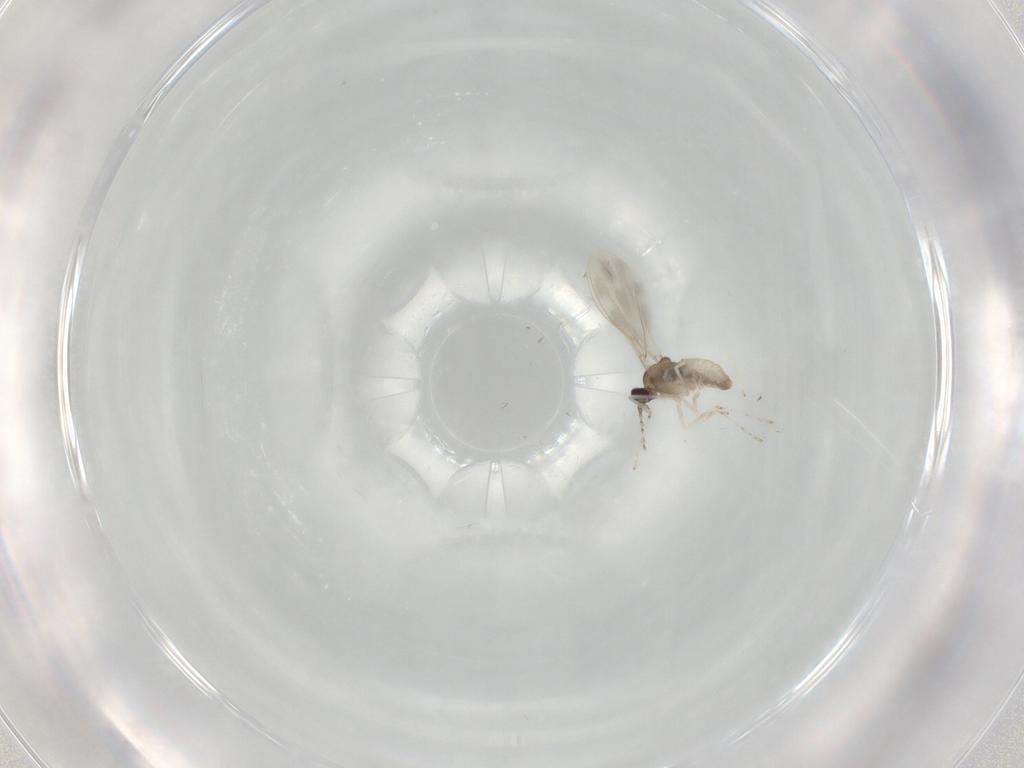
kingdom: Animalia
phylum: Arthropoda
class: Insecta
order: Diptera
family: Cecidomyiidae
